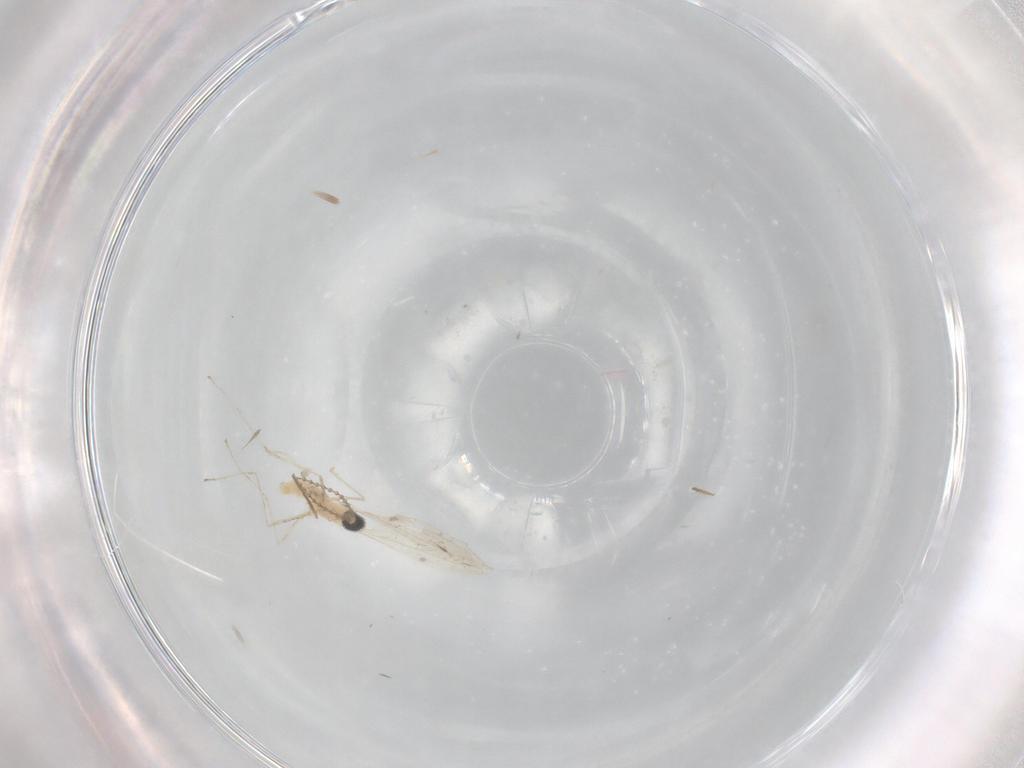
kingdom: Animalia
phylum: Arthropoda
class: Insecta
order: Diptera
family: Cecidomyiidae
